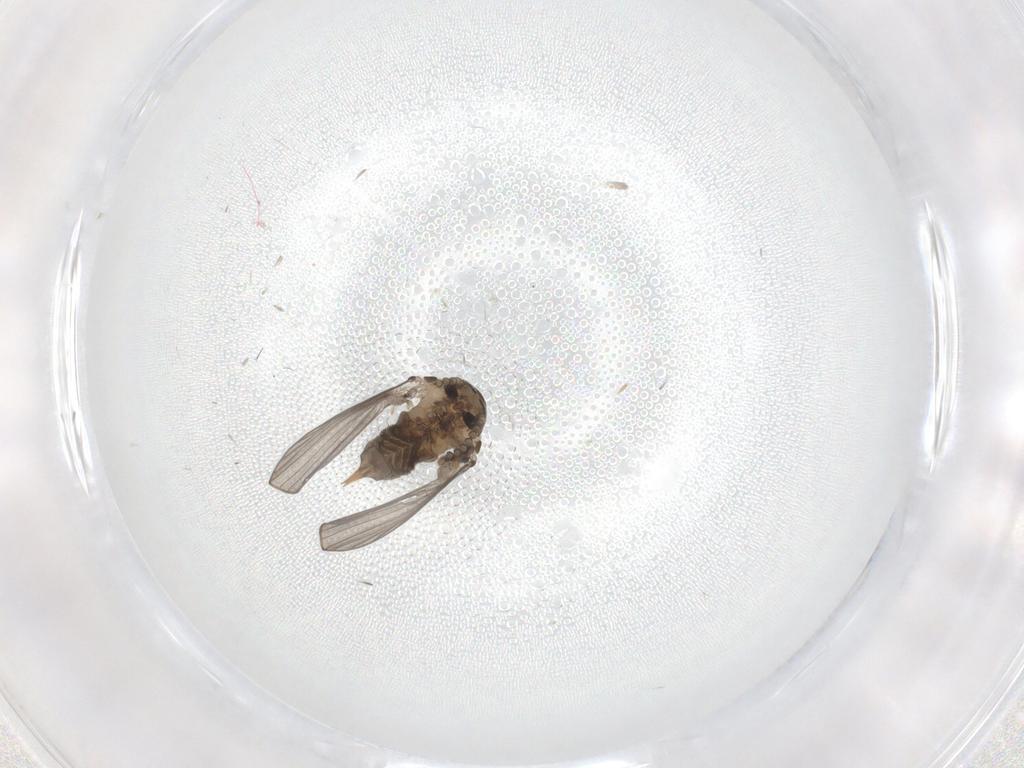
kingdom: Animalia
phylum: Arthropoda
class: Insecta
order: Diptera
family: Psychodidae
